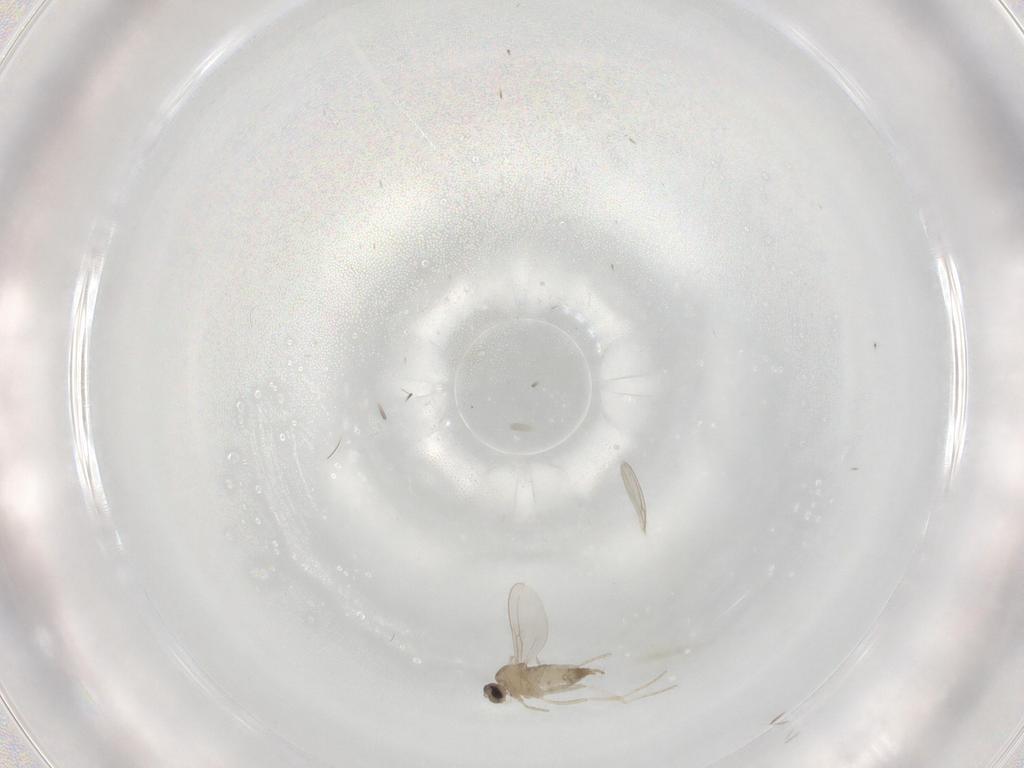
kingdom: Animalia
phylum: Arthropoda
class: Insecta
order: Diptera
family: Cecidomyiidae
